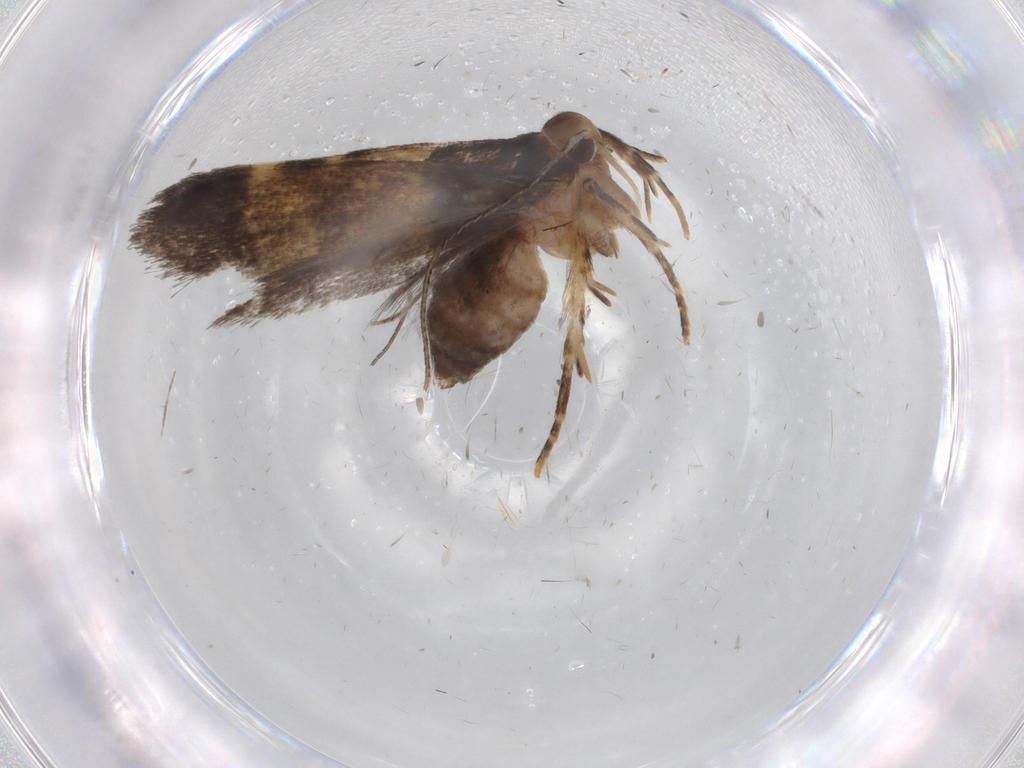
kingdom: Animalia
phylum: Arthropoda
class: Insecta
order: Lepidoptera
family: Cosmopterigidae
